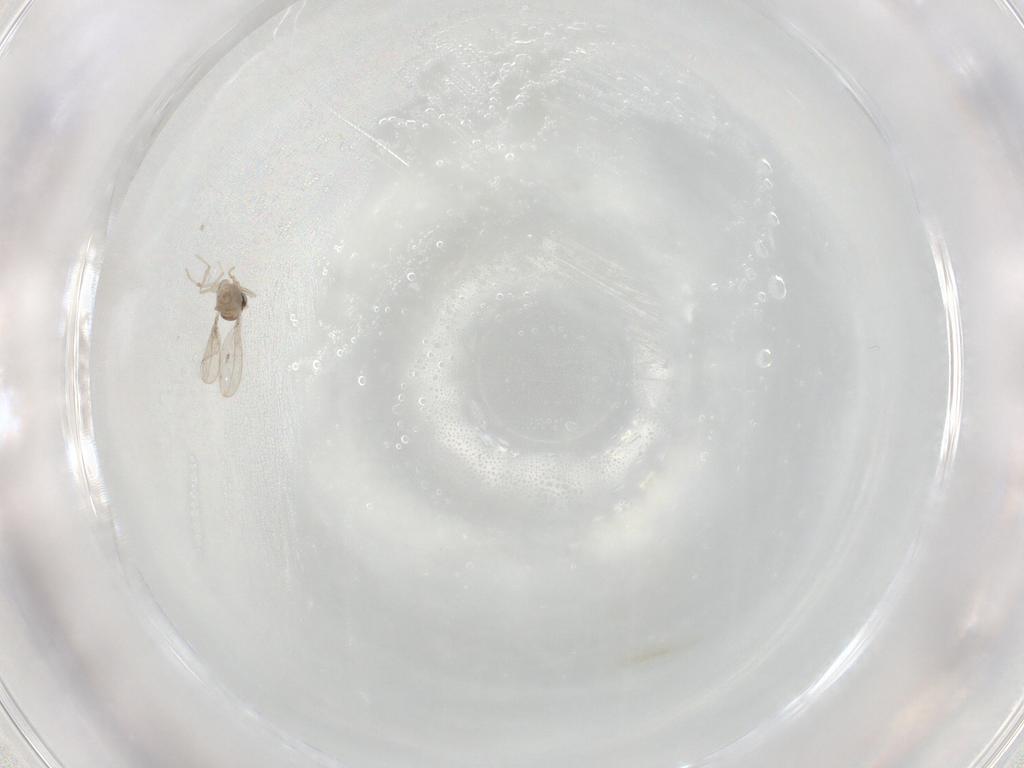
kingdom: Animalia
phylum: Arthropoda
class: Insecta
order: Diptera
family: Cecidomyiidae
